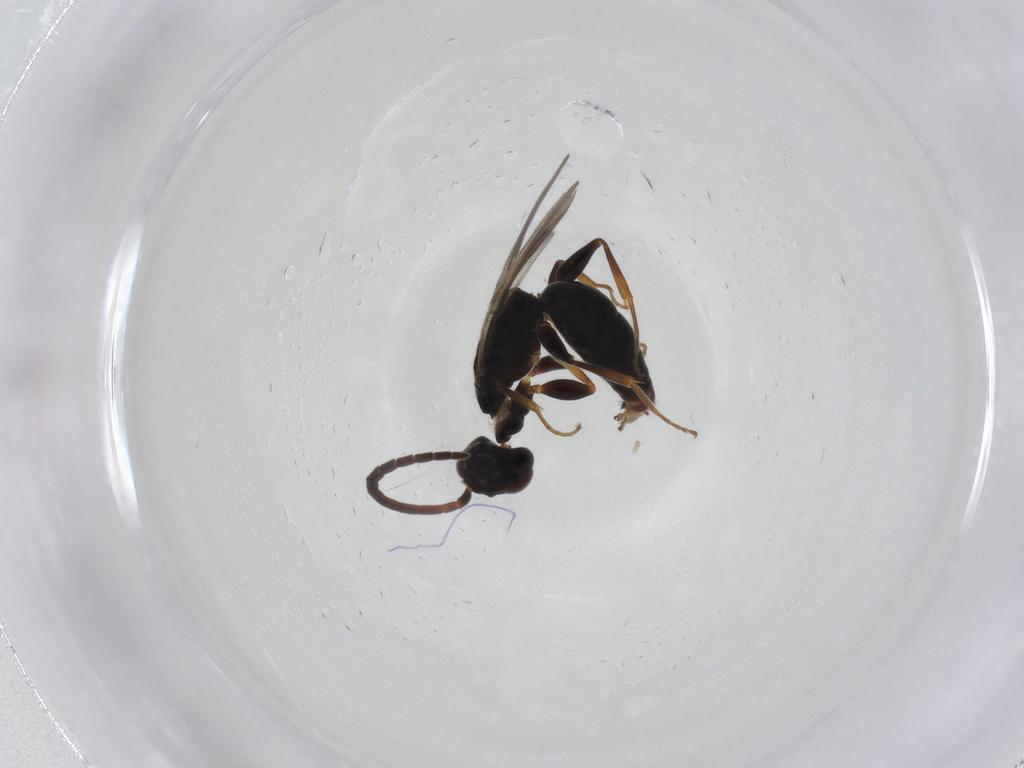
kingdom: Animalia
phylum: Arthropoda
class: Insecta
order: Hymenoptera
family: Bethylidae
